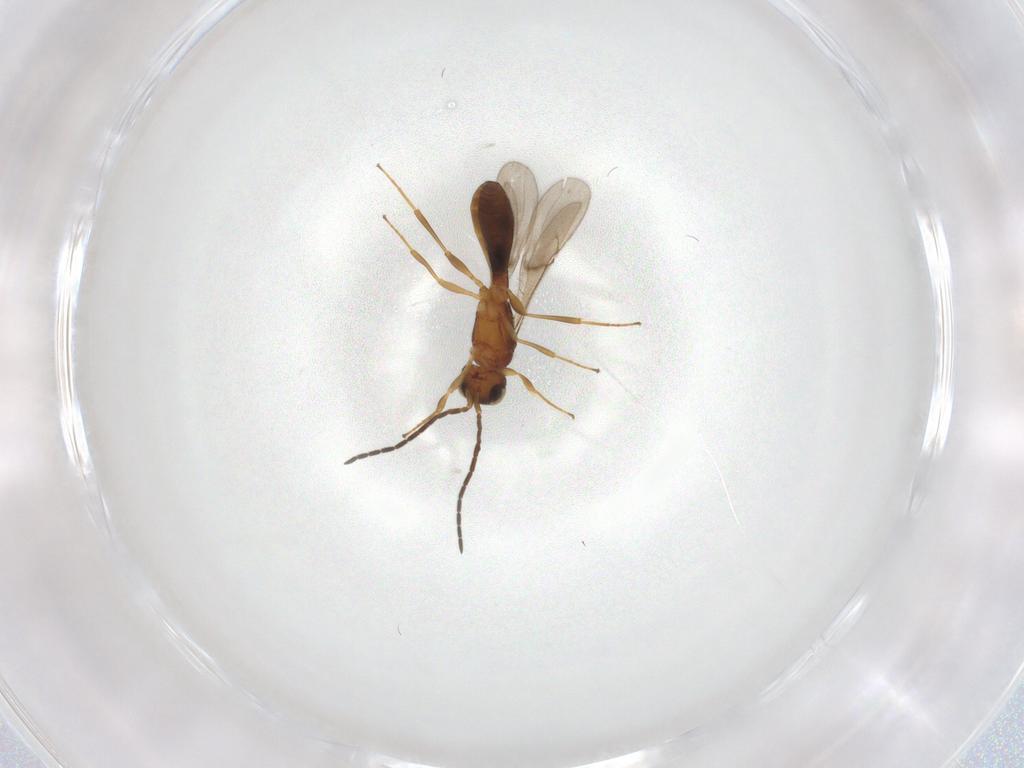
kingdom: Animalia
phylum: Arthropoda
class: Insecta
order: Hymenoptera
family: Scelionidae
